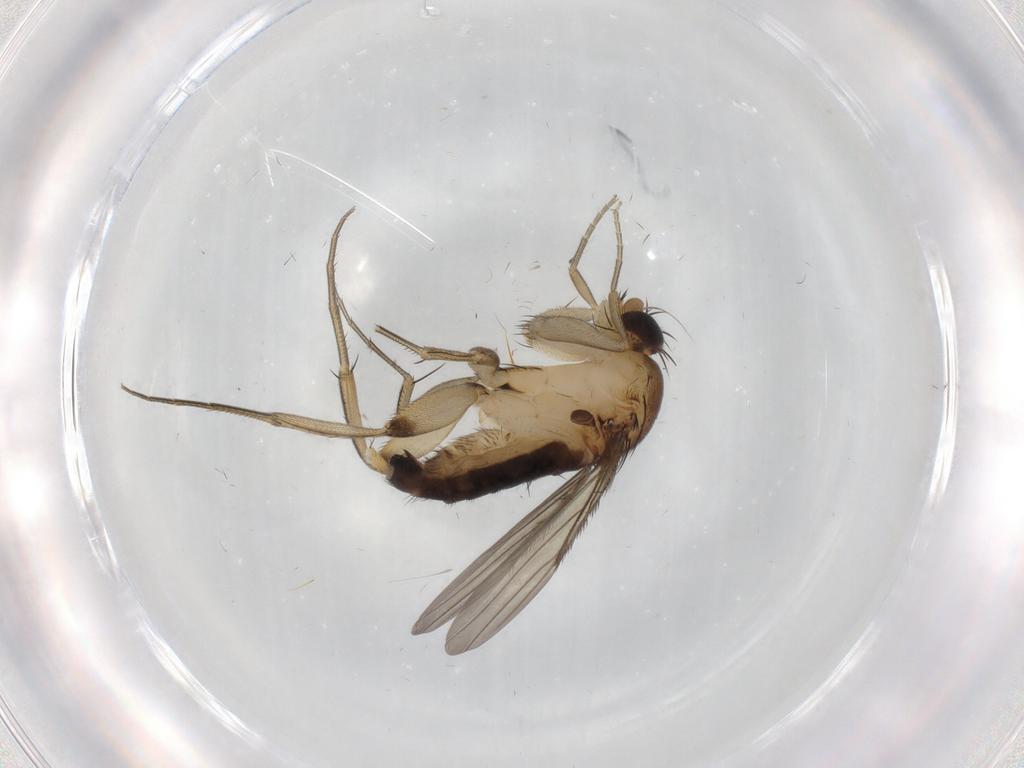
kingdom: Animalia
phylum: Arthropoda
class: Insecta
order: Diptera
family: Phoridae
